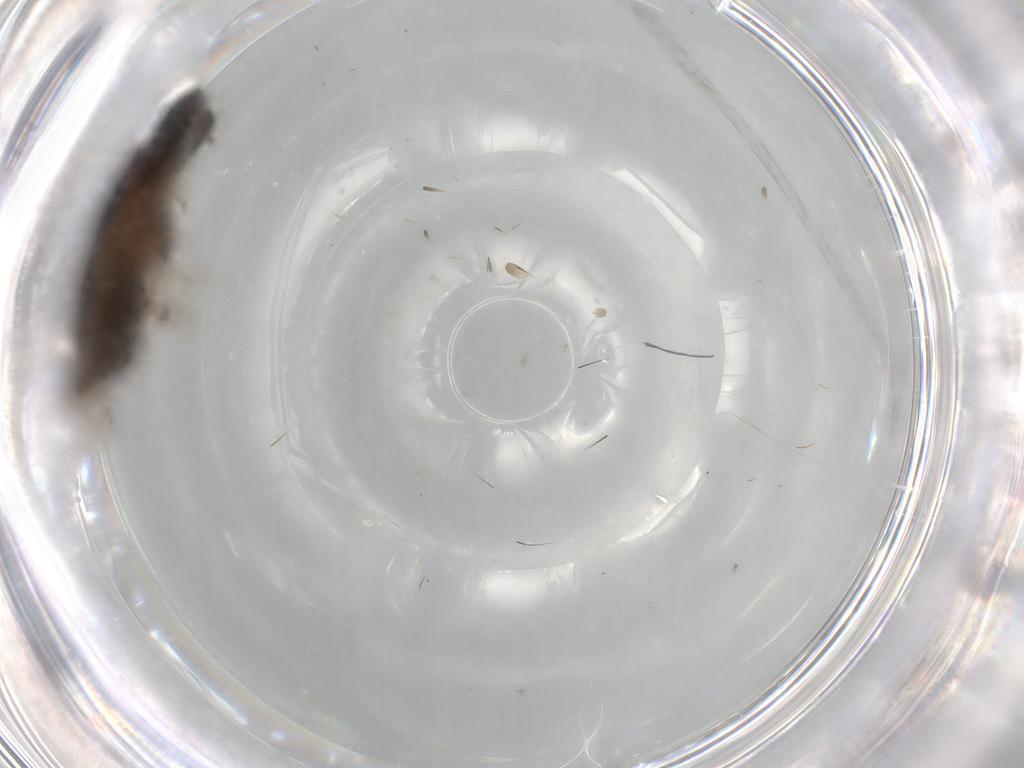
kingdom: Animalia
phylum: Arthropoda
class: Insecta
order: Coleoptera
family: Elateridae
